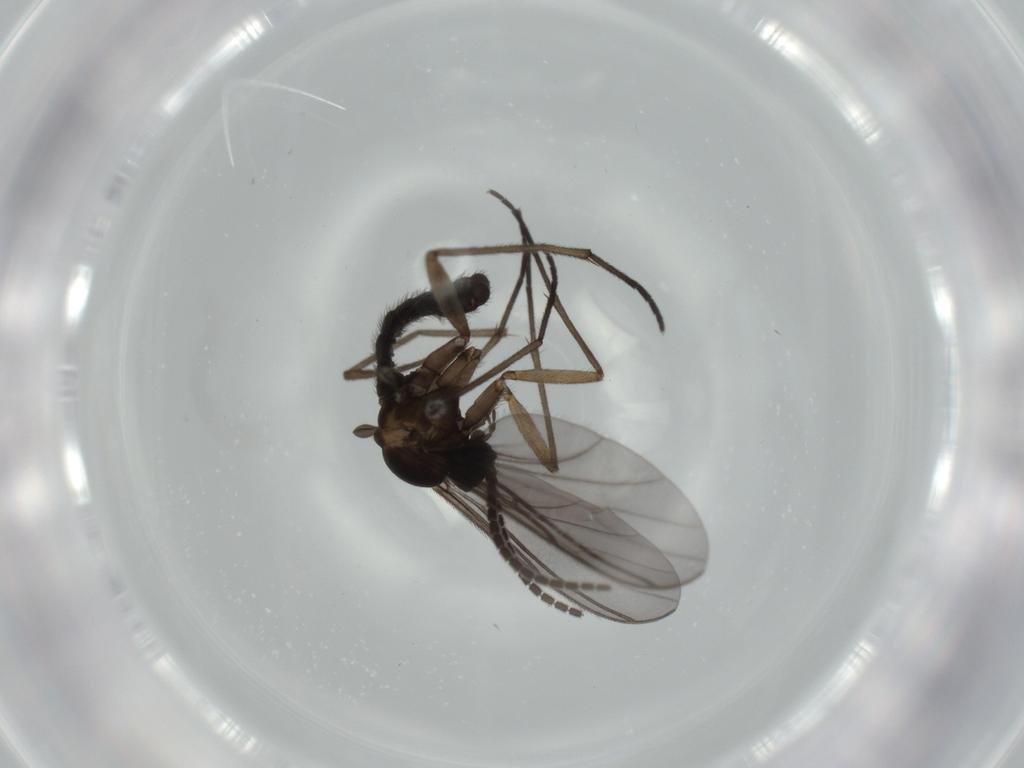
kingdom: Animalia
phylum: Arthropoda
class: Insecta
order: Diptera
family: Sciaridae
